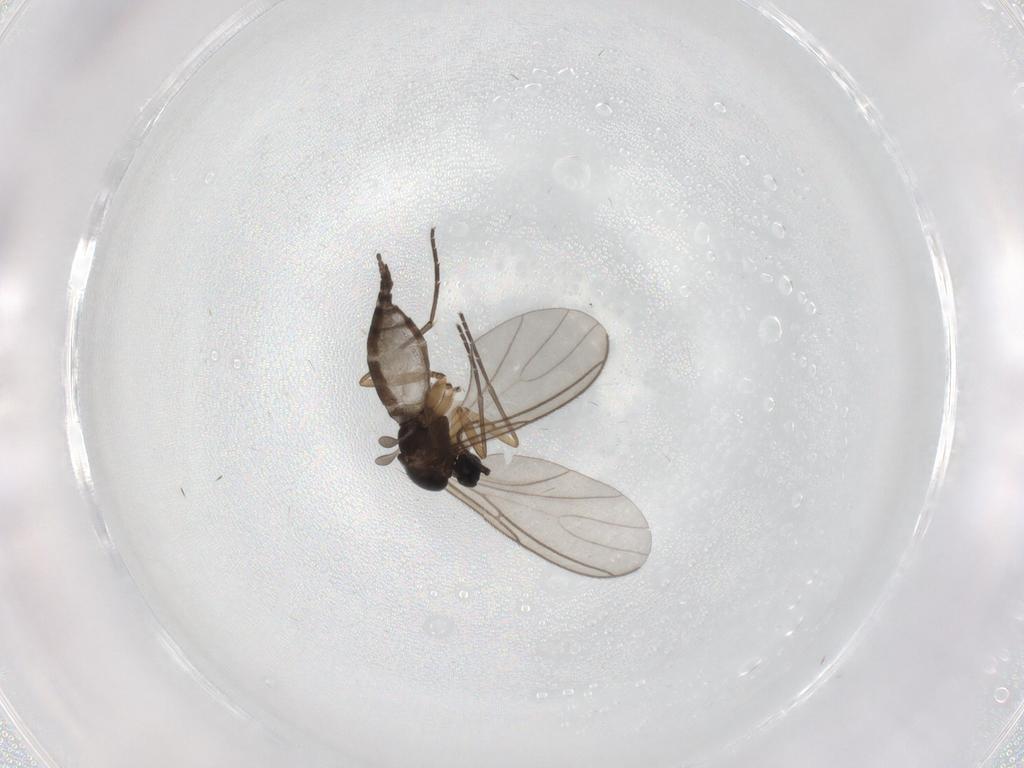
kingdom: Animalia
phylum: Arthropoda
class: Insecta
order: Diptera
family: Sciaridae
